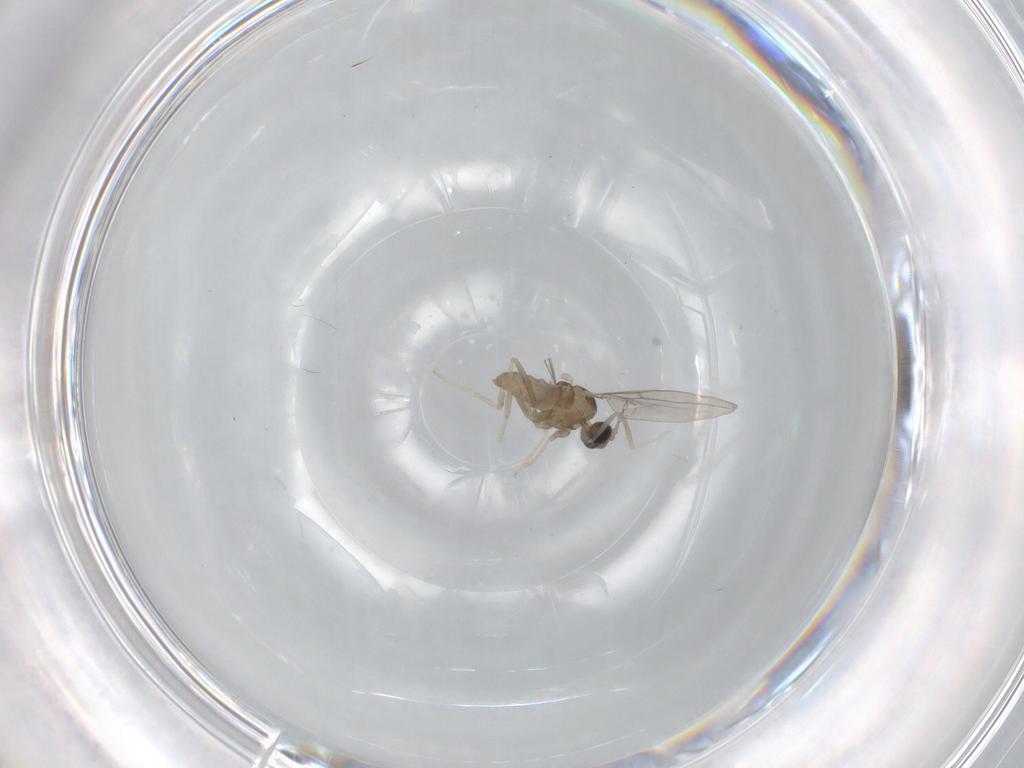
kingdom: Animalia
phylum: Arthropoda
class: Insecta
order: Diptera
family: Cecidomyiidae
